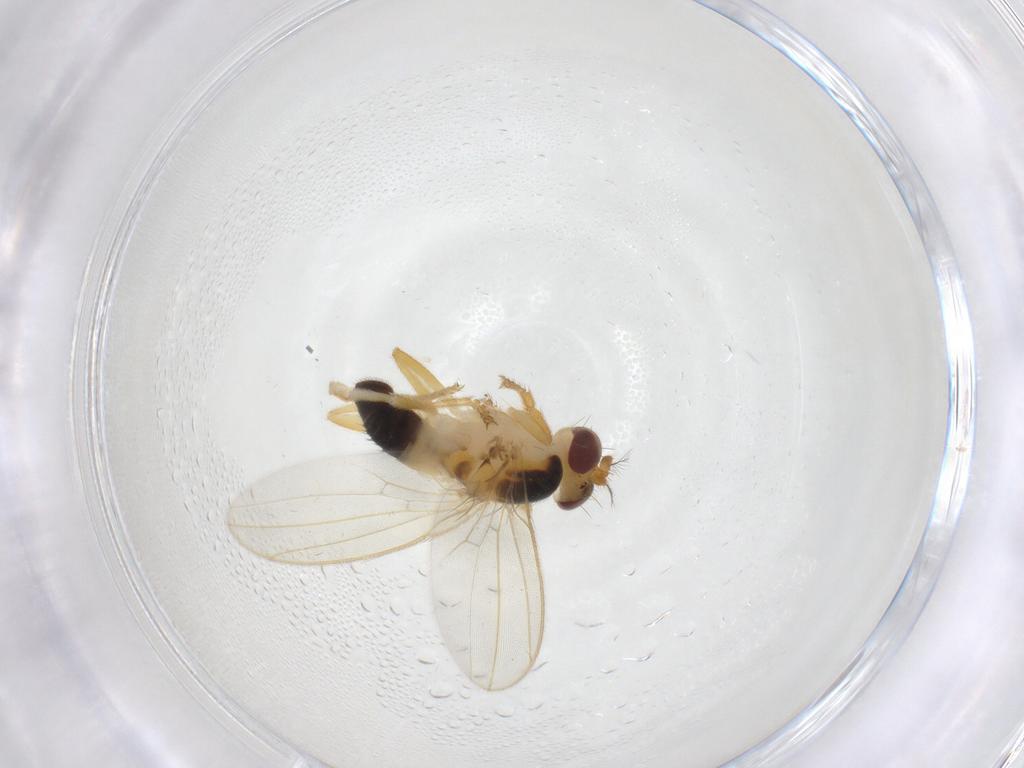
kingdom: Animalia
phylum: Arthropoda
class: Insecta
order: Diptera
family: Periscelididae
